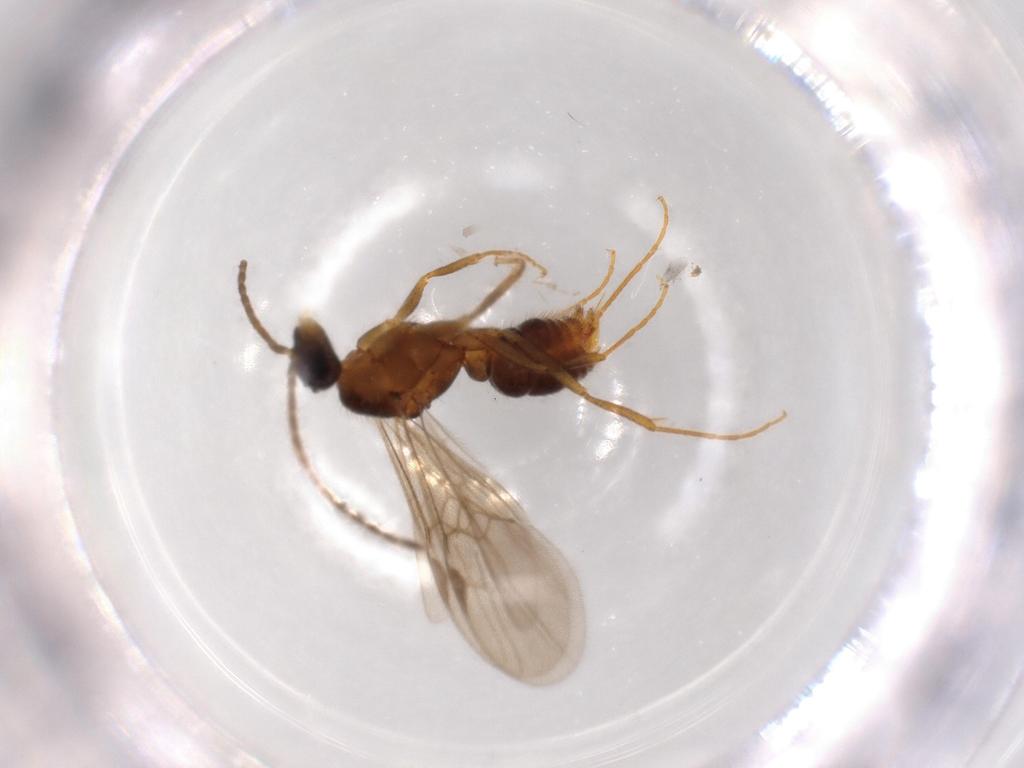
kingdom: Animalia
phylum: Arthropoda
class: Insecta
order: Hymenoptera
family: Formicidae
